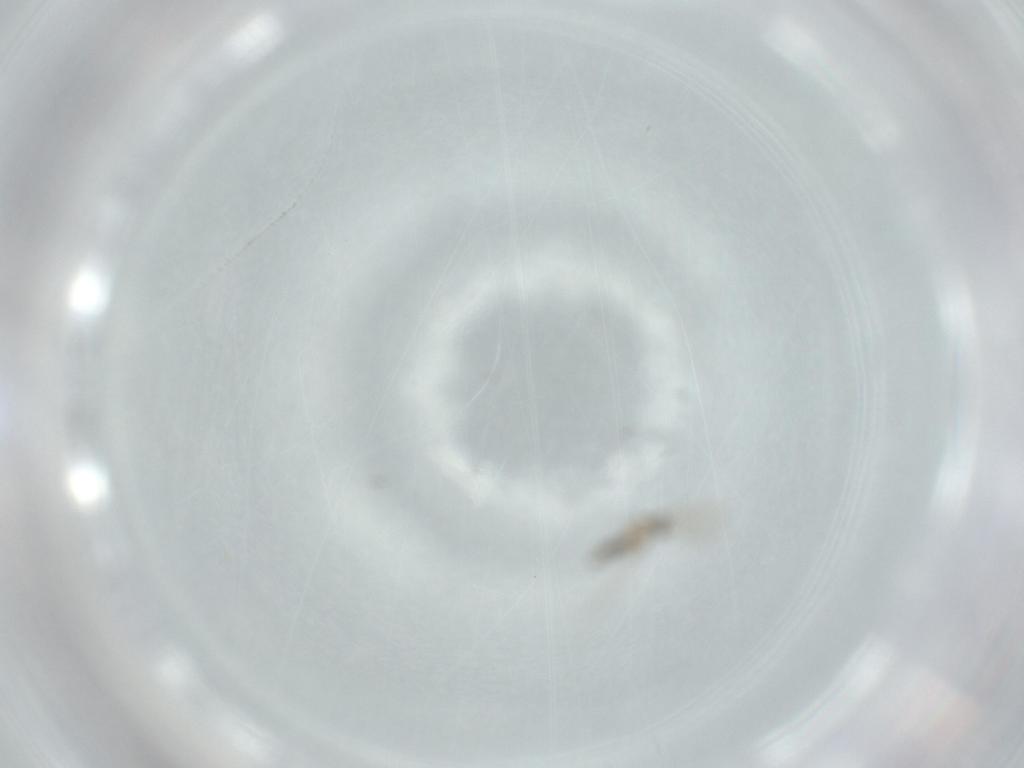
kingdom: Animalia
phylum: Arthropoda
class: Insecta
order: Diptera
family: Cecidomyiidae
